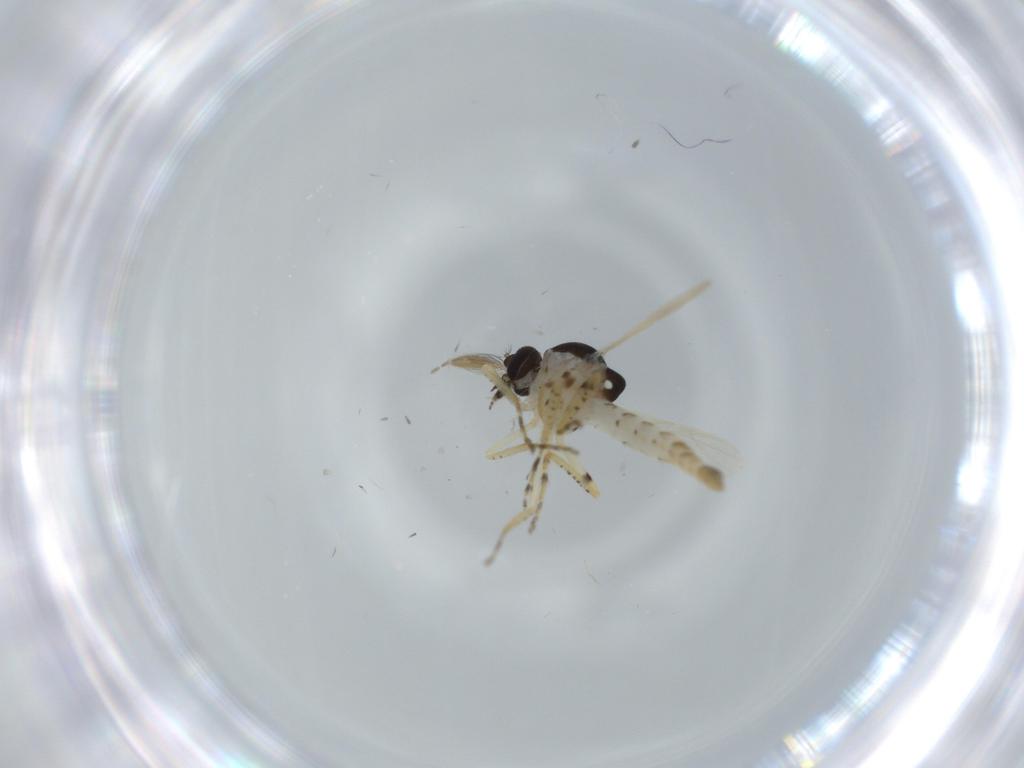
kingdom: Animalia
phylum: Arthropoda
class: Insecta
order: Diptera
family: Ceratopogonidae
